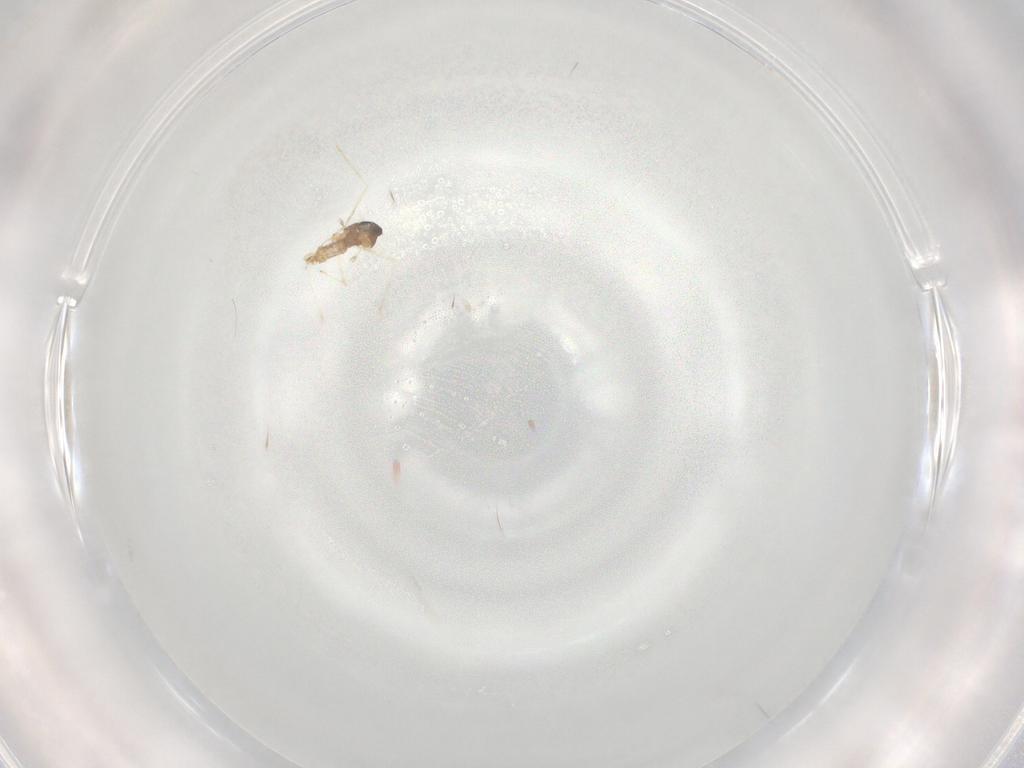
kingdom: Animalia
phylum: Arthropoda
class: Insecta
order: Diptera
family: Cecidomyiidae
